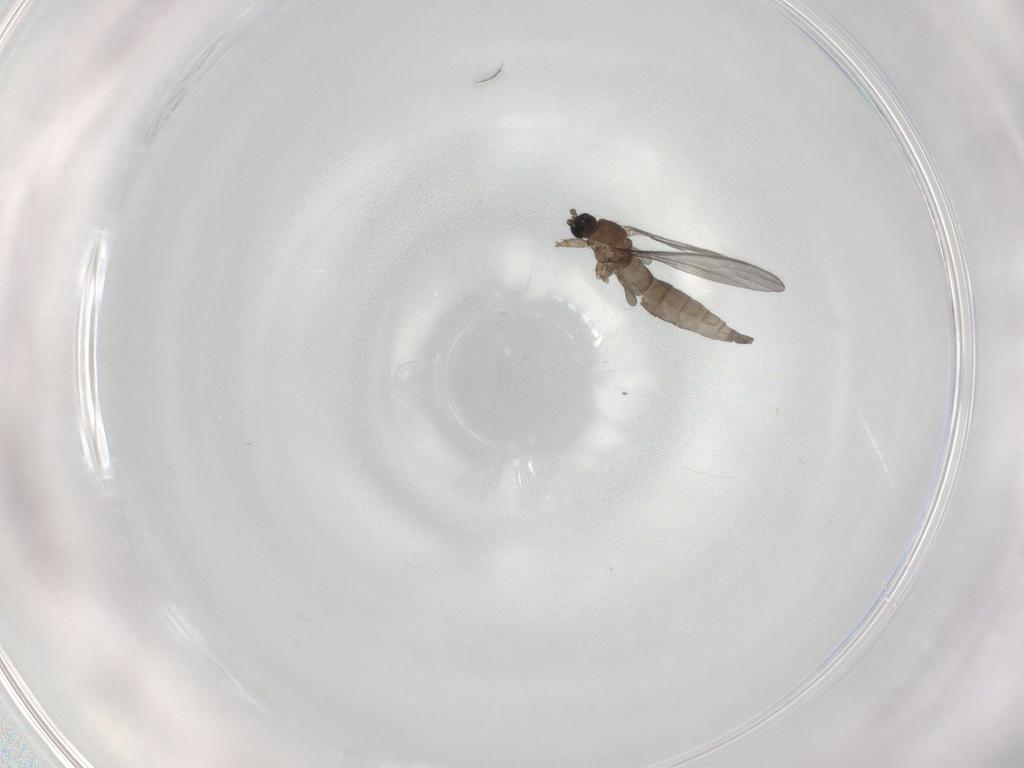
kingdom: Animalia
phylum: Arthropoda
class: Insecta
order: Diptera
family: Sciaridae
